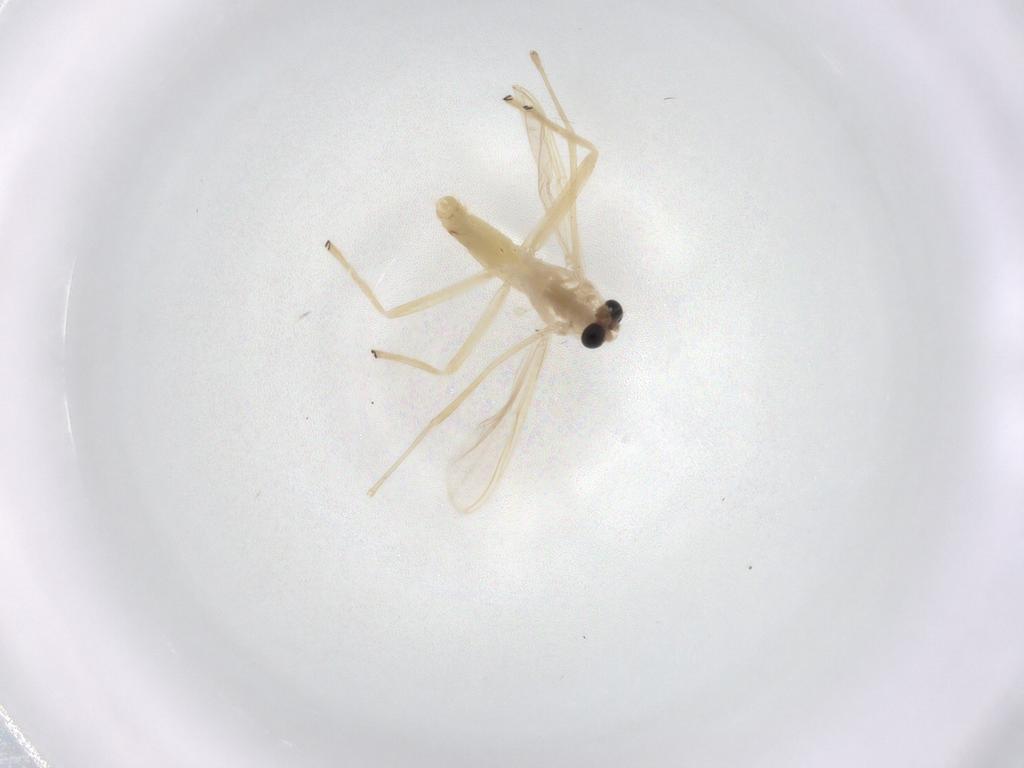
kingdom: Animalia
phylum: Arthropoda
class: Insecta
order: Diptera
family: Chironomidae
